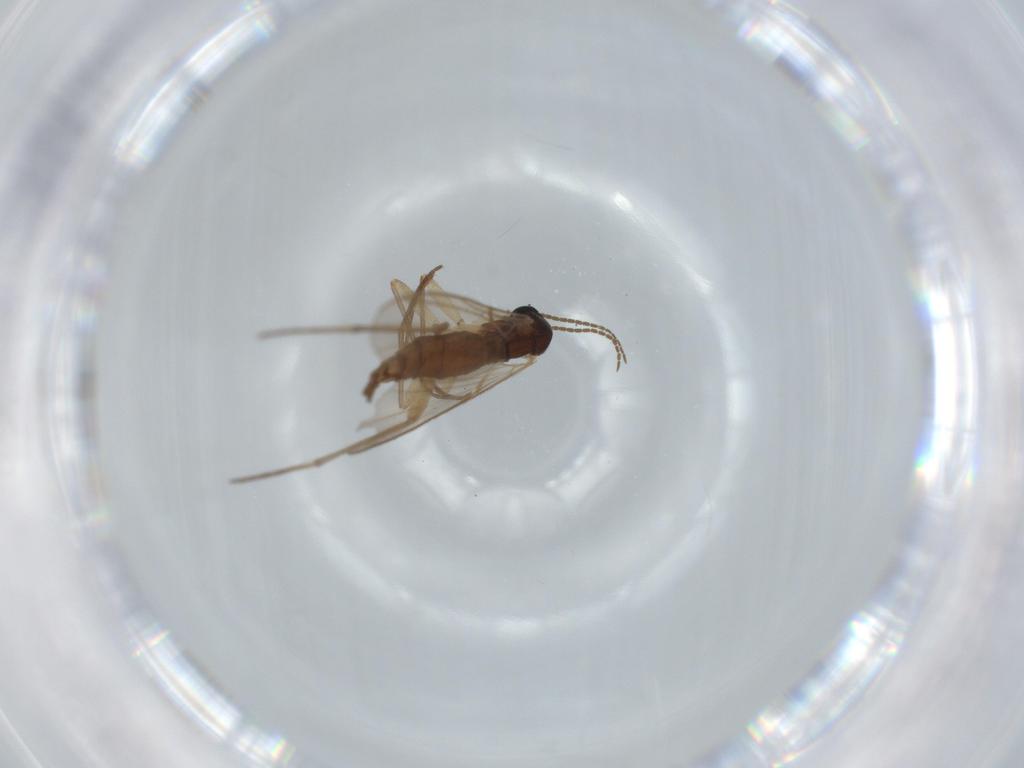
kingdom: Animalia
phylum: Arthropoda
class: Insecta
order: Diptera
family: Sciaridae
